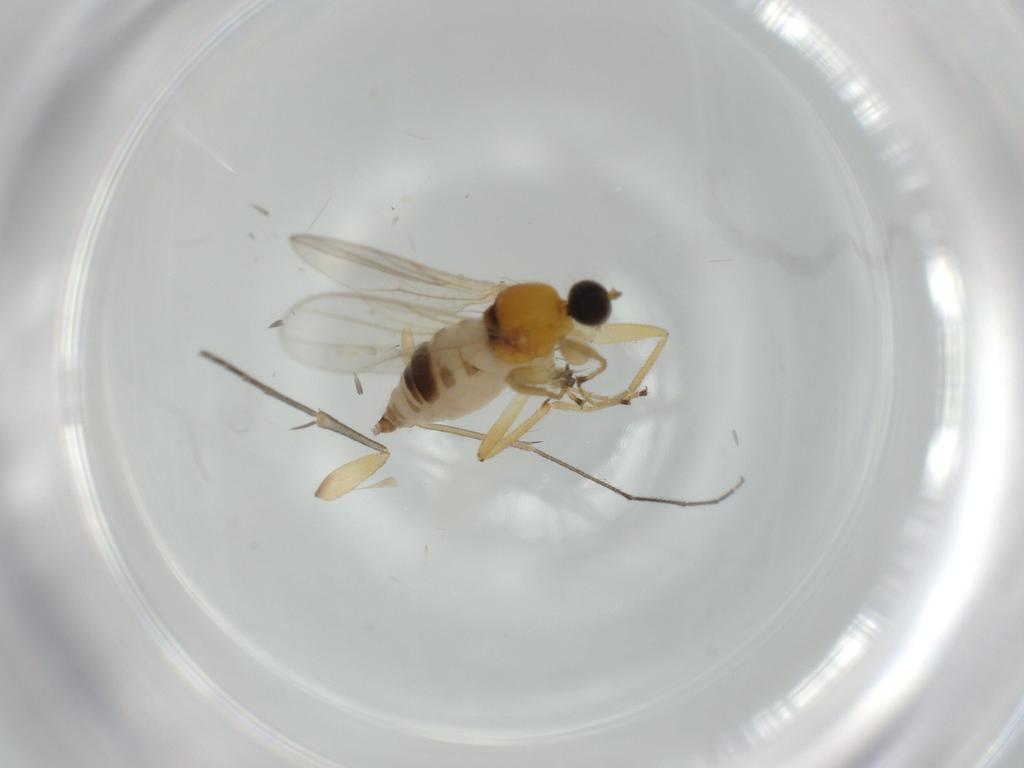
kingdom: Animalia
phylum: Arthropoda
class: Insecta
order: Diptera
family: Hybotidae
